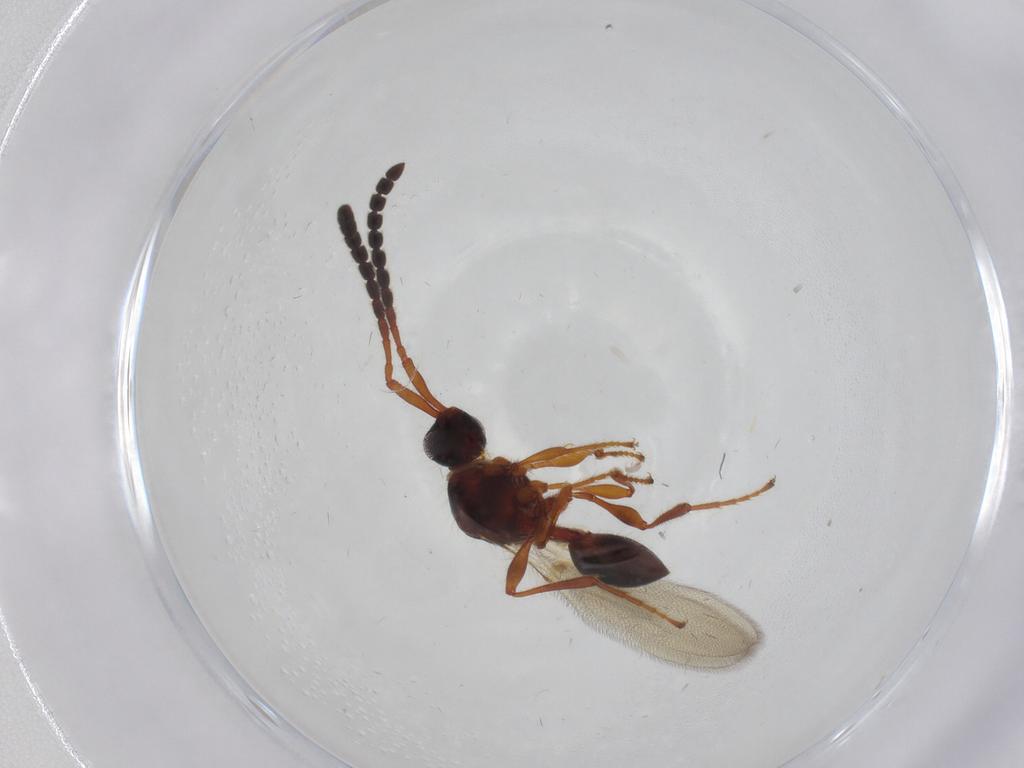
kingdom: Animalia
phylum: Arthropoda
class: Insecta
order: Hymenoptera
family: Diapriidae
